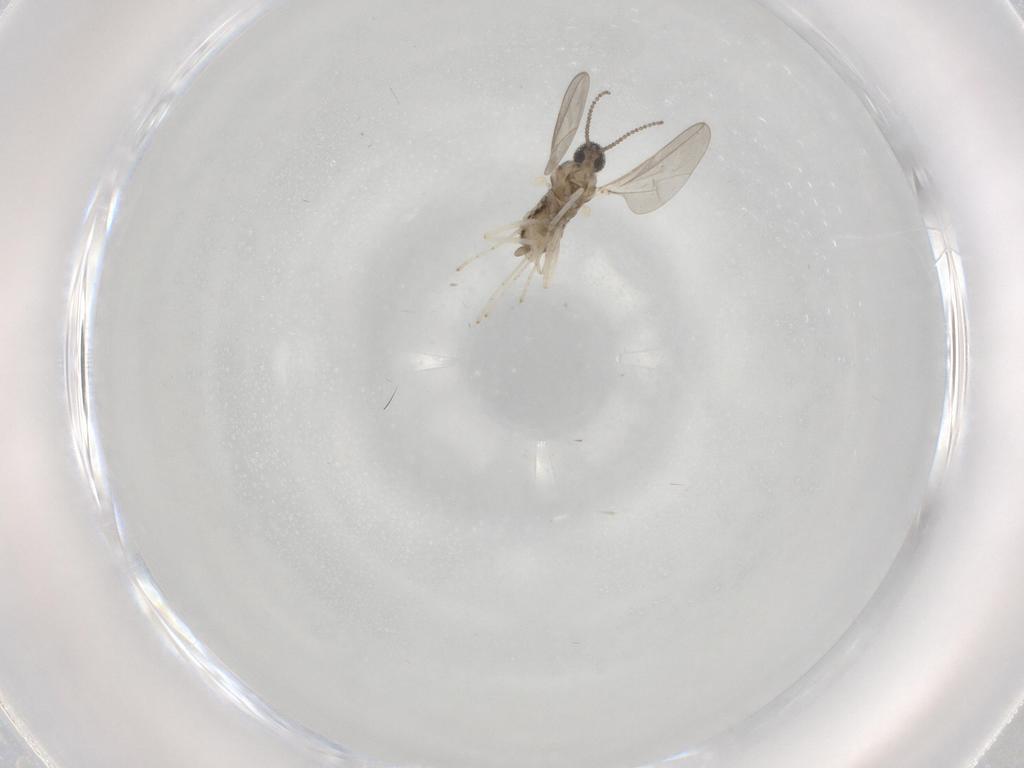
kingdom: Animalia
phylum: Arthropoda
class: Insecta
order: Diptera
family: Cecidomyiidae
